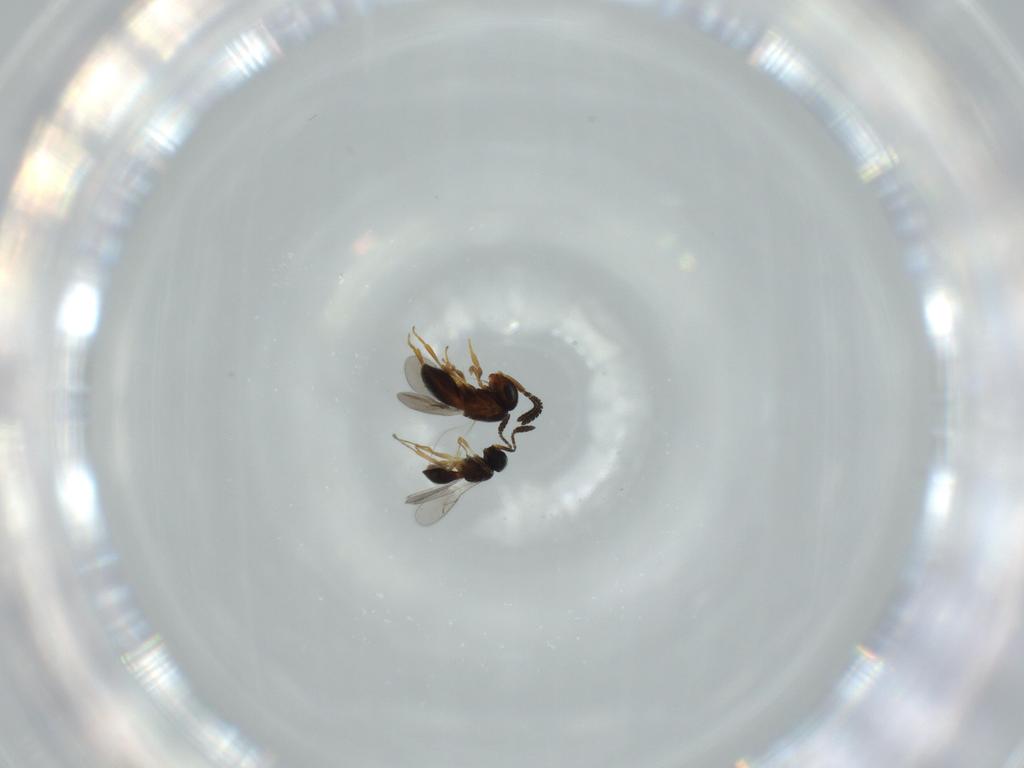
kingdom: Animalia
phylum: Arthropoda
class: Insecta
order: Hymenoptera
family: Scelionidae
